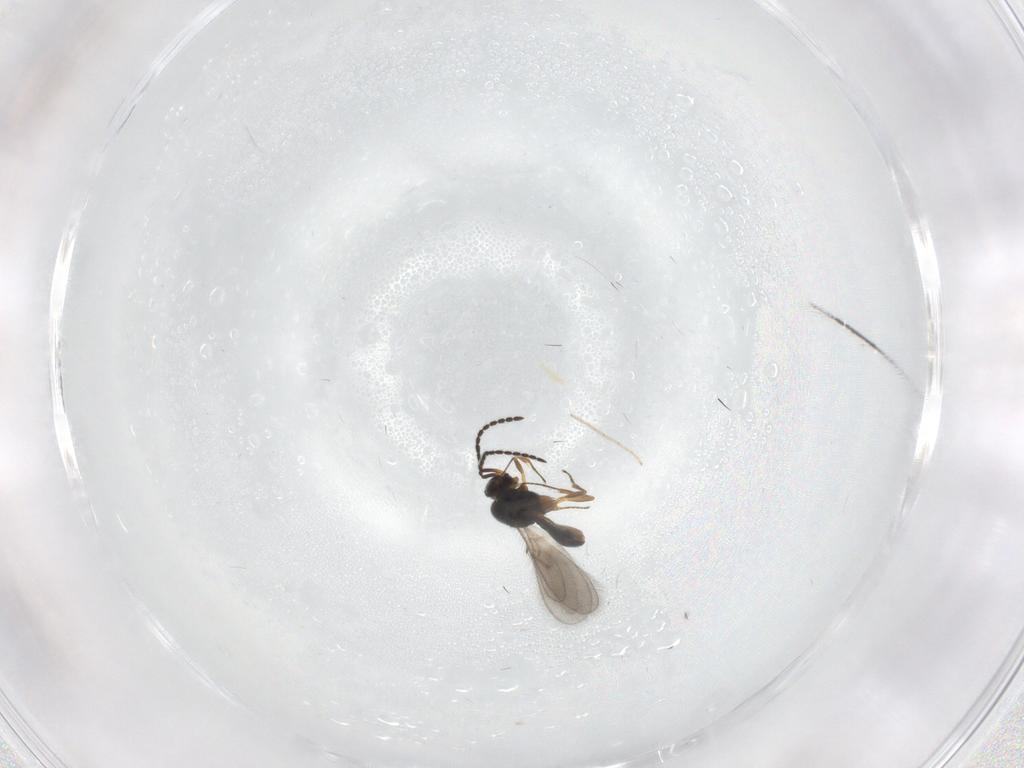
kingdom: Animalia
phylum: Arthropoda
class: Insecta
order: Hymenoptera
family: Scelionidae
